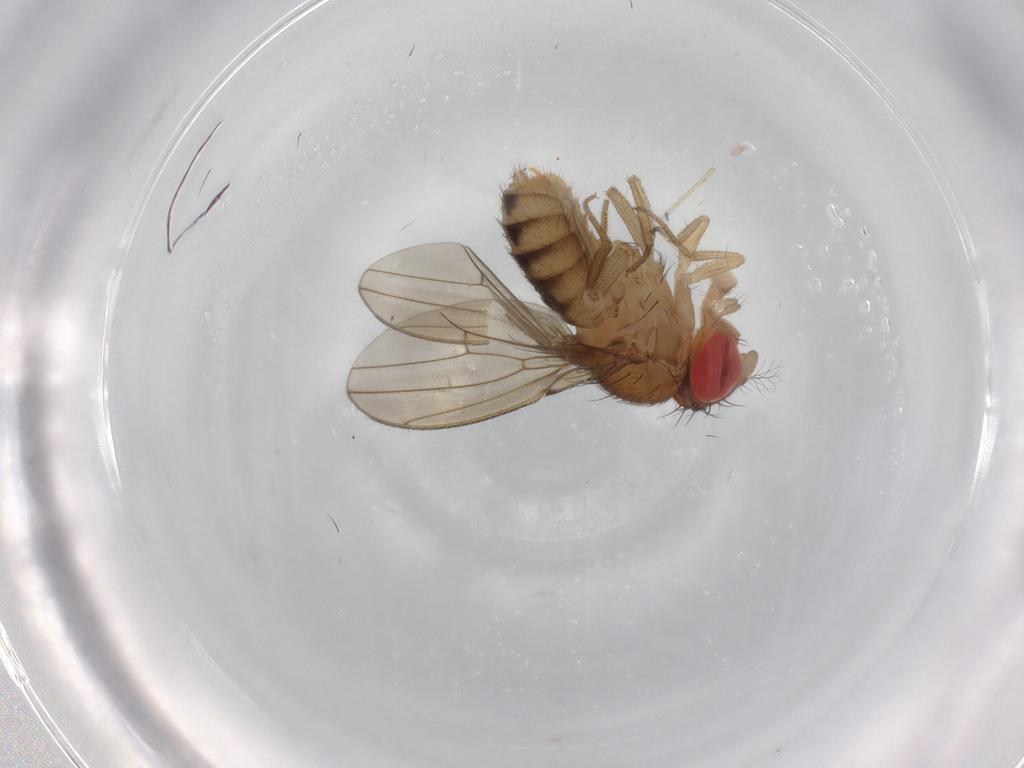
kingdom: Animalia
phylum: Arthropoda
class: Insecta
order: Diptera
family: Drosophilidae
